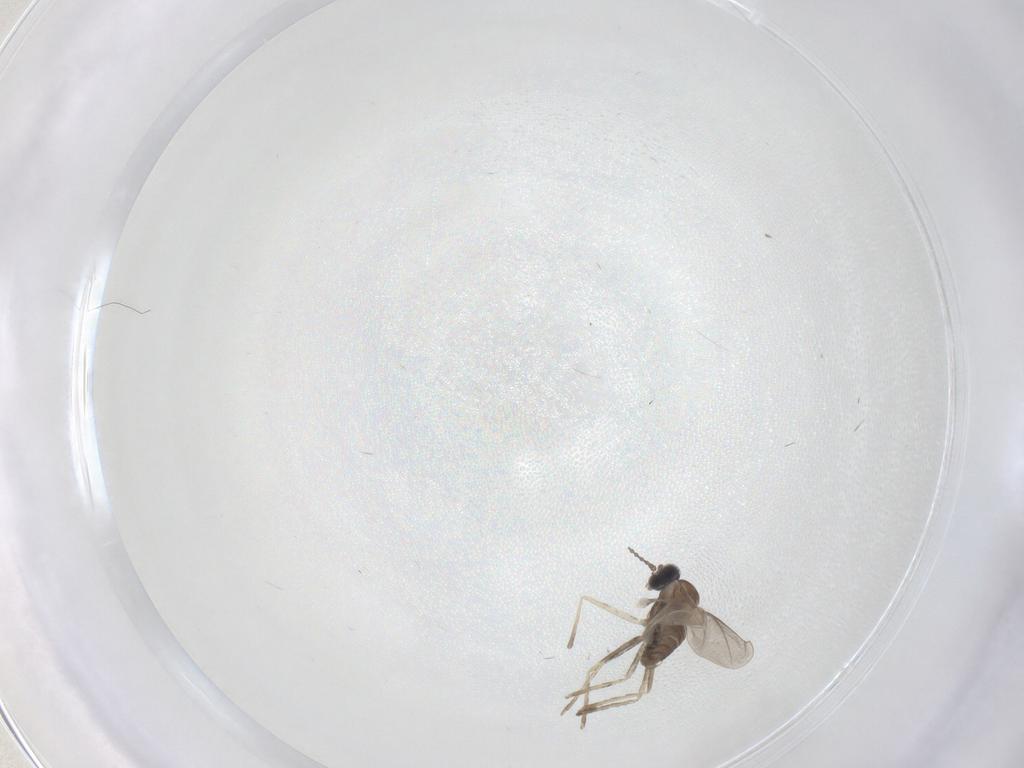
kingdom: Animalia
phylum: Arthropoda
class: Insecta
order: Diptera
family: Cecidomyiidae
